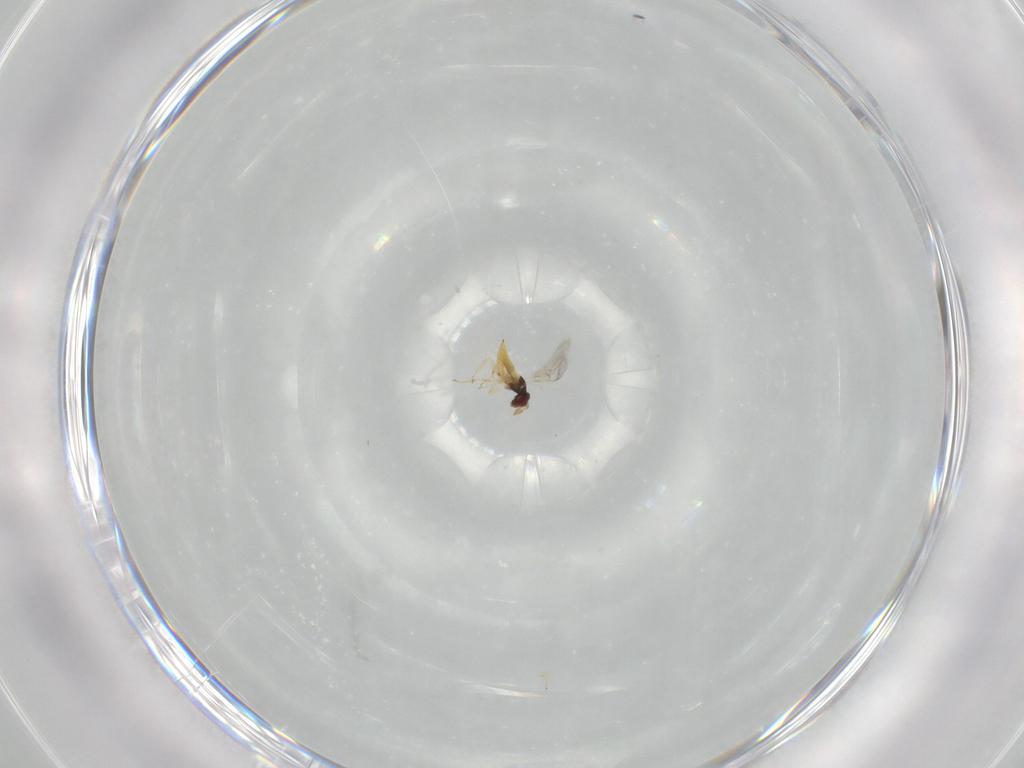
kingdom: Animalia
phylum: Arthropoda
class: Insecta
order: Hymenoptera
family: Trichogrammatidae
